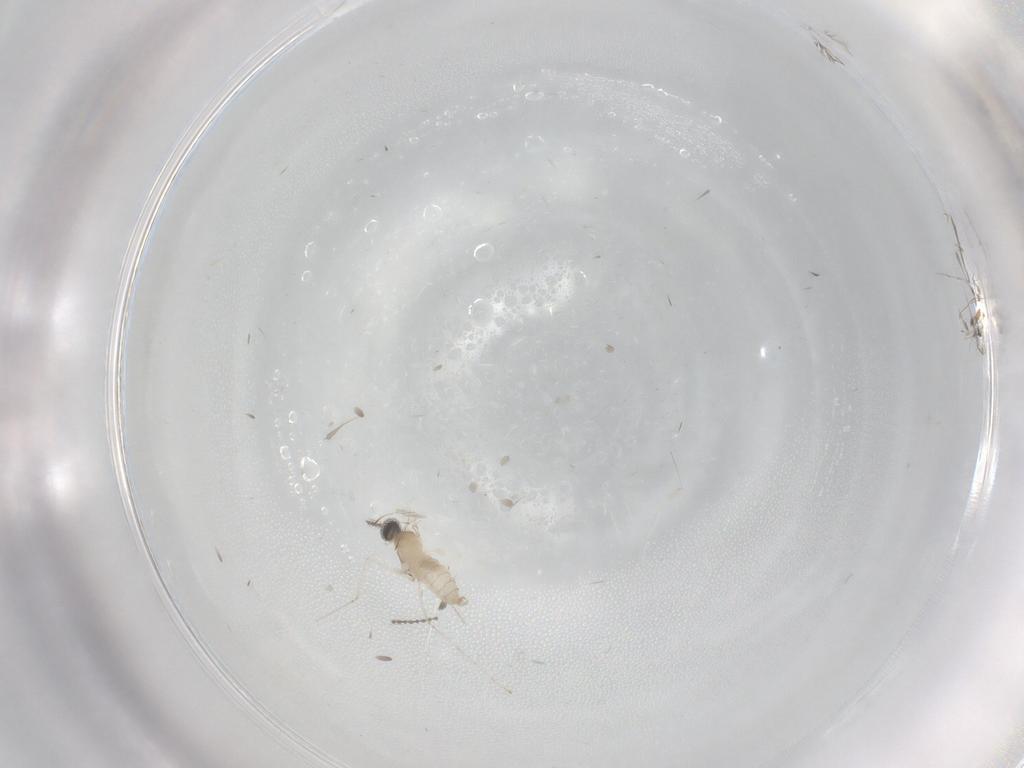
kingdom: Animalia
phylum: Arthropoda
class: Insecta
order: Diptera
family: Cecidomyiidae
